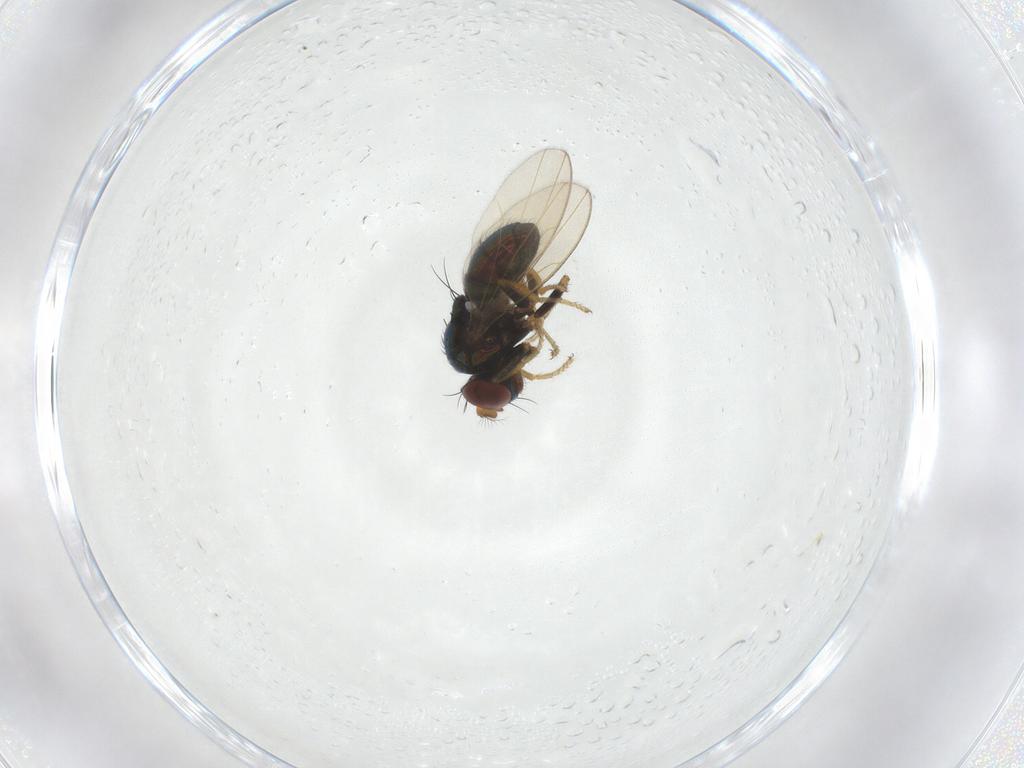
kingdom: Animalia
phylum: Arthropoda
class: Insecta
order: Diptera
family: Ephydridae
